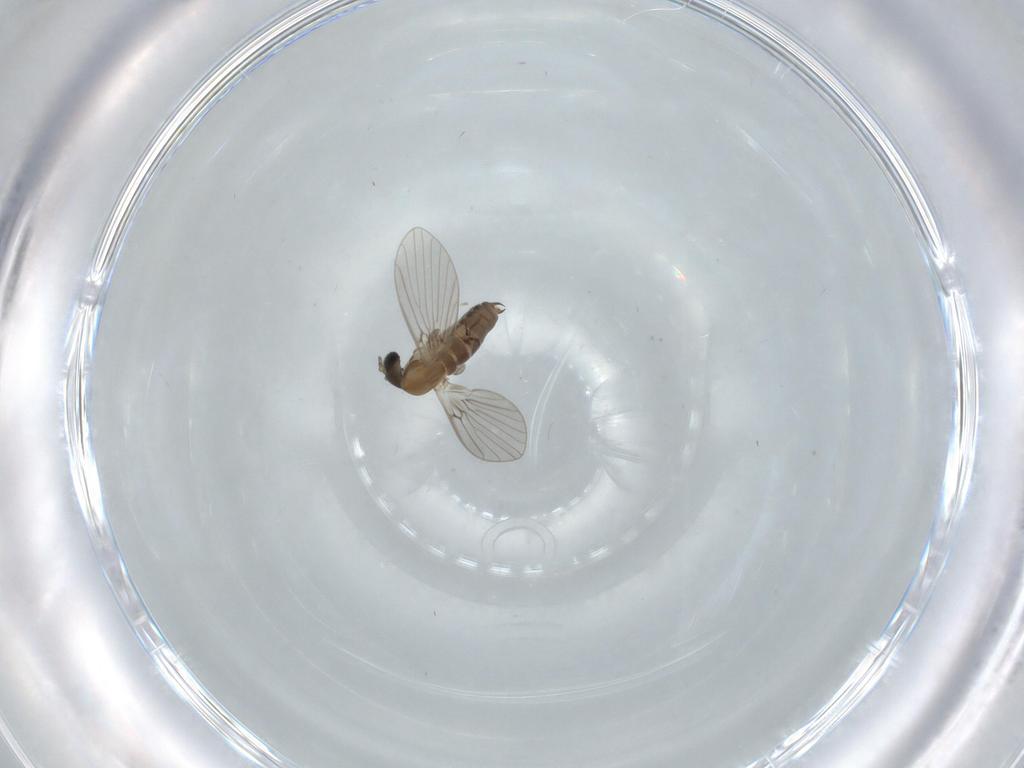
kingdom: Animalia
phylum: Arthropoda
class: Insecta
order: Diptera
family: Psychodidae
